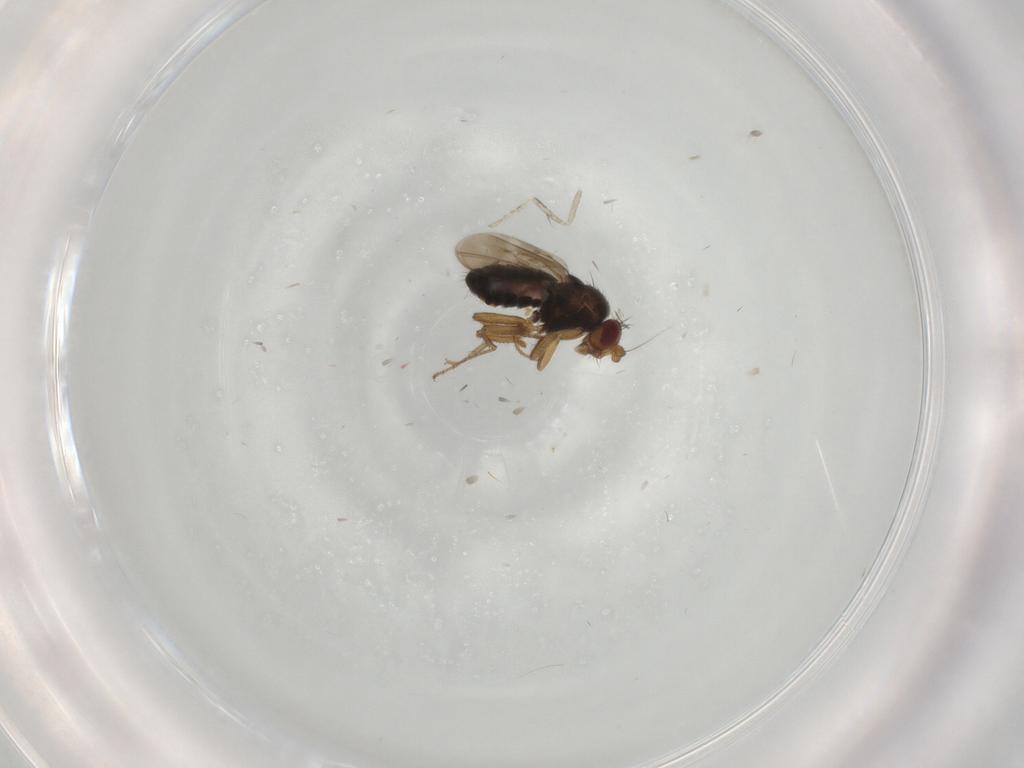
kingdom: Animalia
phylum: Arthropoda
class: Insecta
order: Diptera
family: Sphaeroceridae
